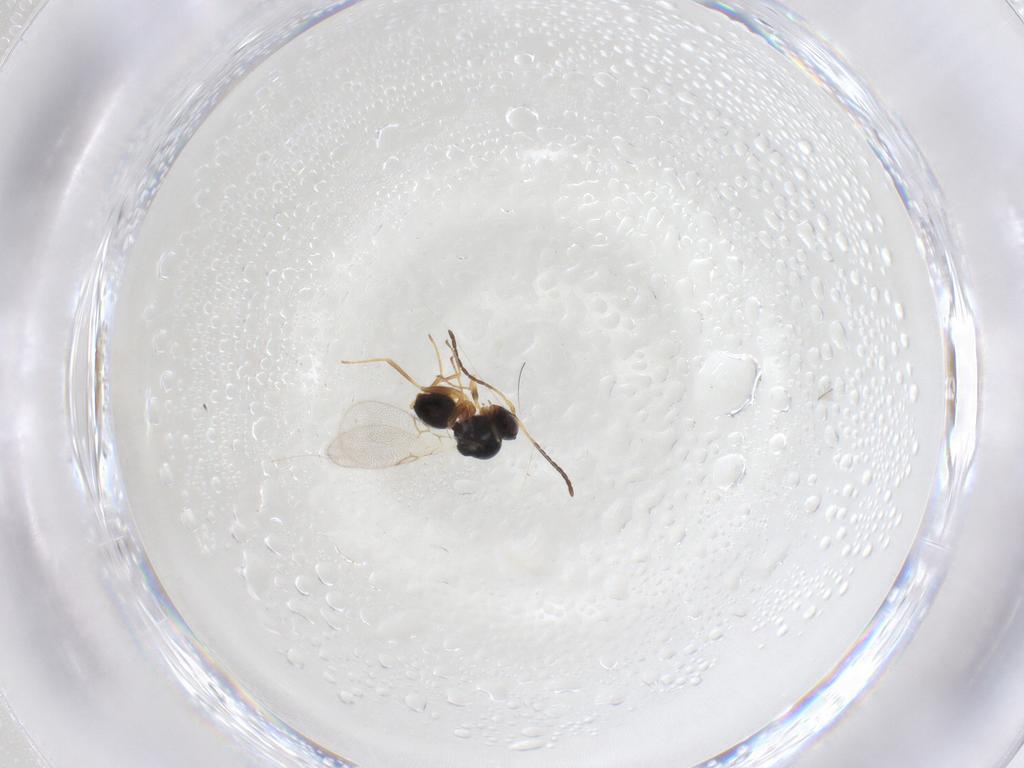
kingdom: Animalia
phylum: Arthropoda
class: Insecta
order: Hymenoptera
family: Figitidae
